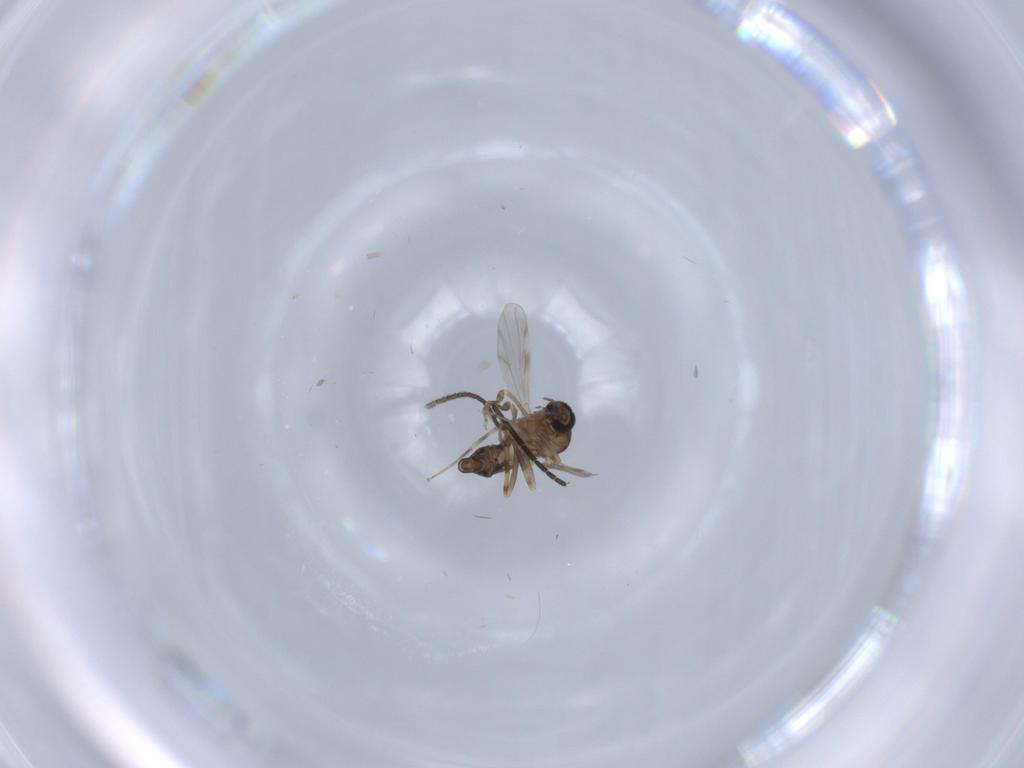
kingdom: Animalia
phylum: Arthropoda
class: Insecta
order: Diptera
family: Ceratopogonidae
